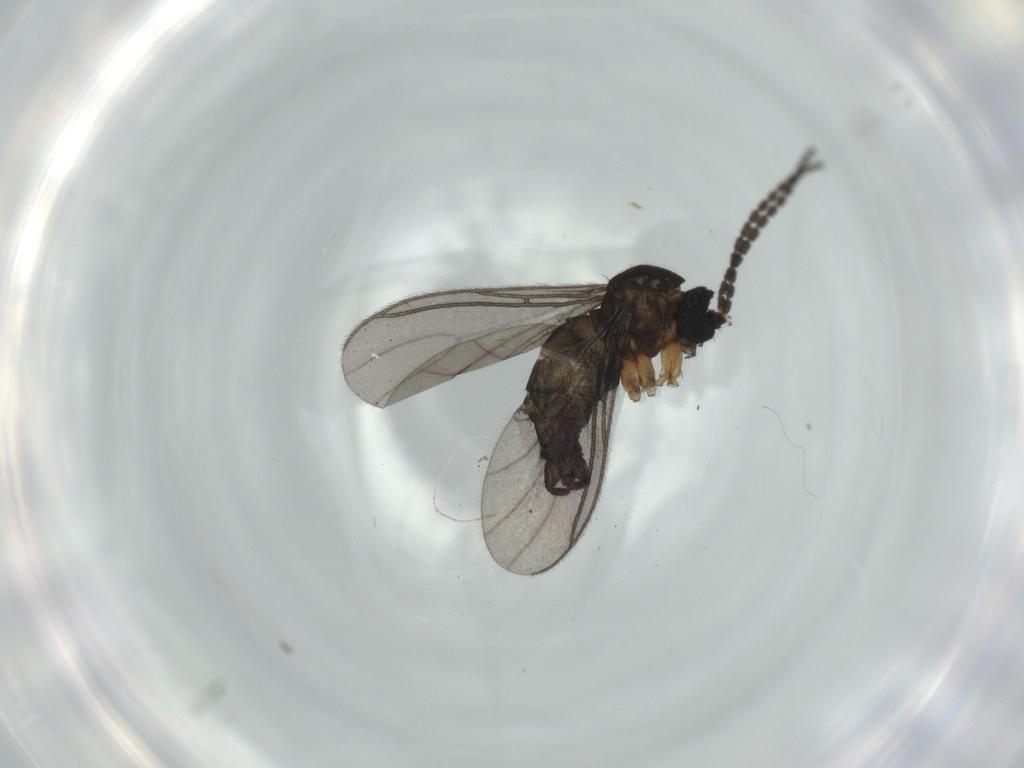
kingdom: Animalia
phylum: Arthropoda
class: Insecta
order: Diptera
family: Sciaridae
